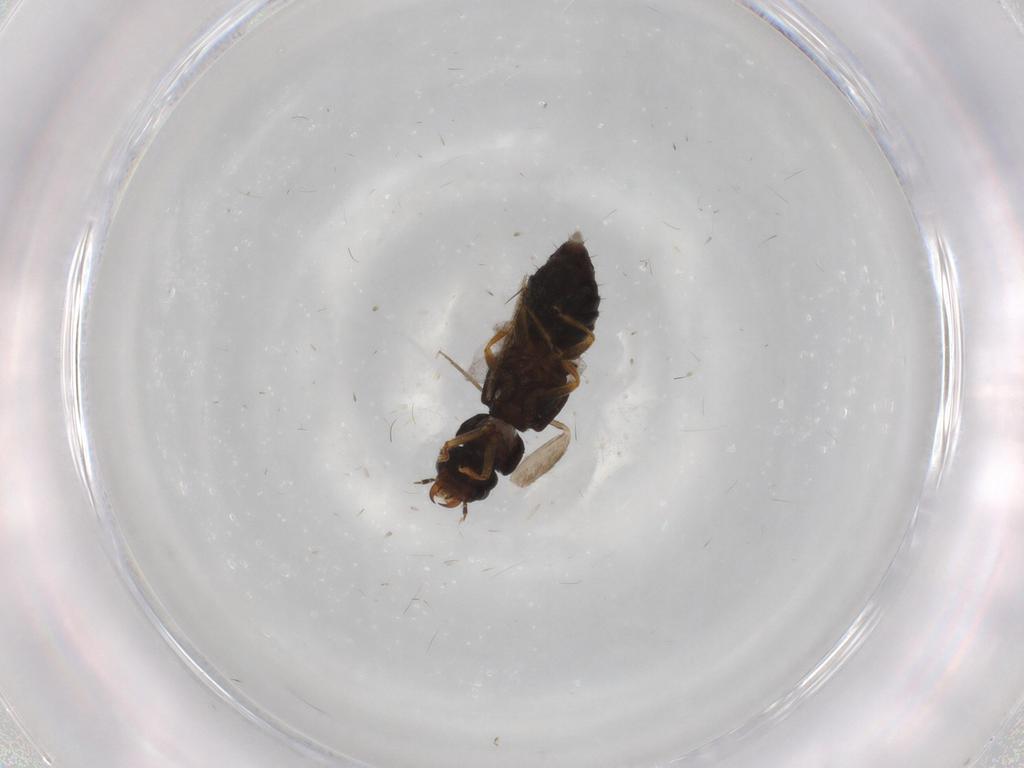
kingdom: Animalia
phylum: Arthropoda
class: Insecta
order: Coleoptera
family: Staphylinidae
